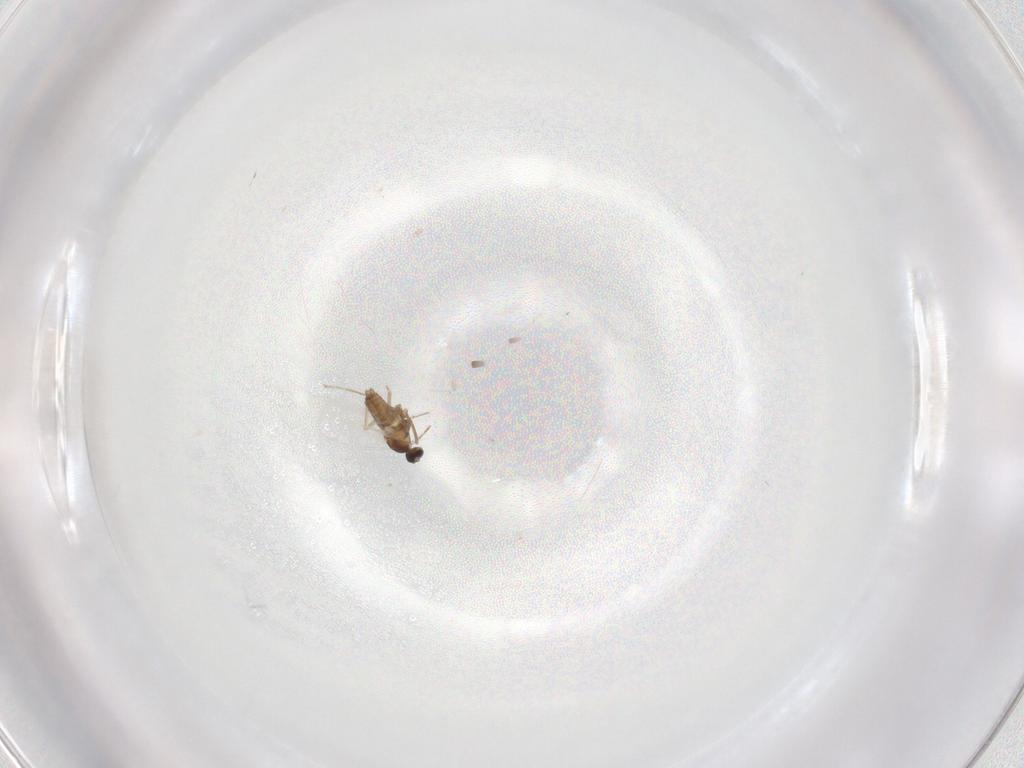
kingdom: Animalia
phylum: Arthropoda
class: Insecta
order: Diptera
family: Cecidomyiidae
